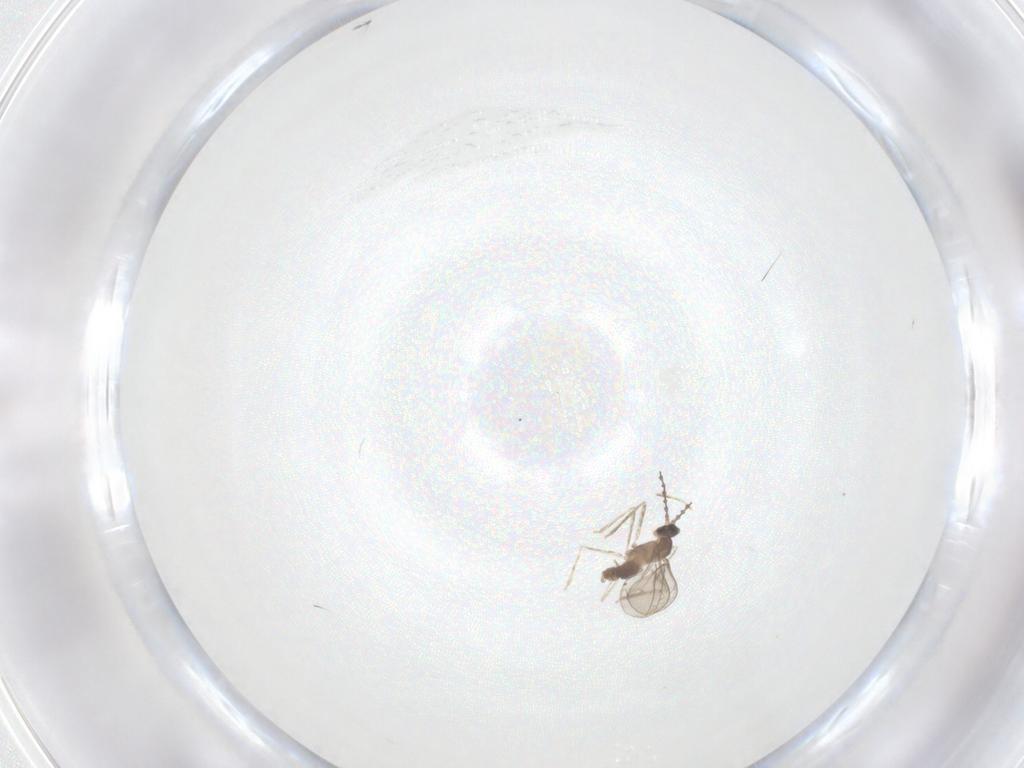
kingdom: Animalia
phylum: Arthropoda
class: Insecta
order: Diptera
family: Cecidomyiidae
